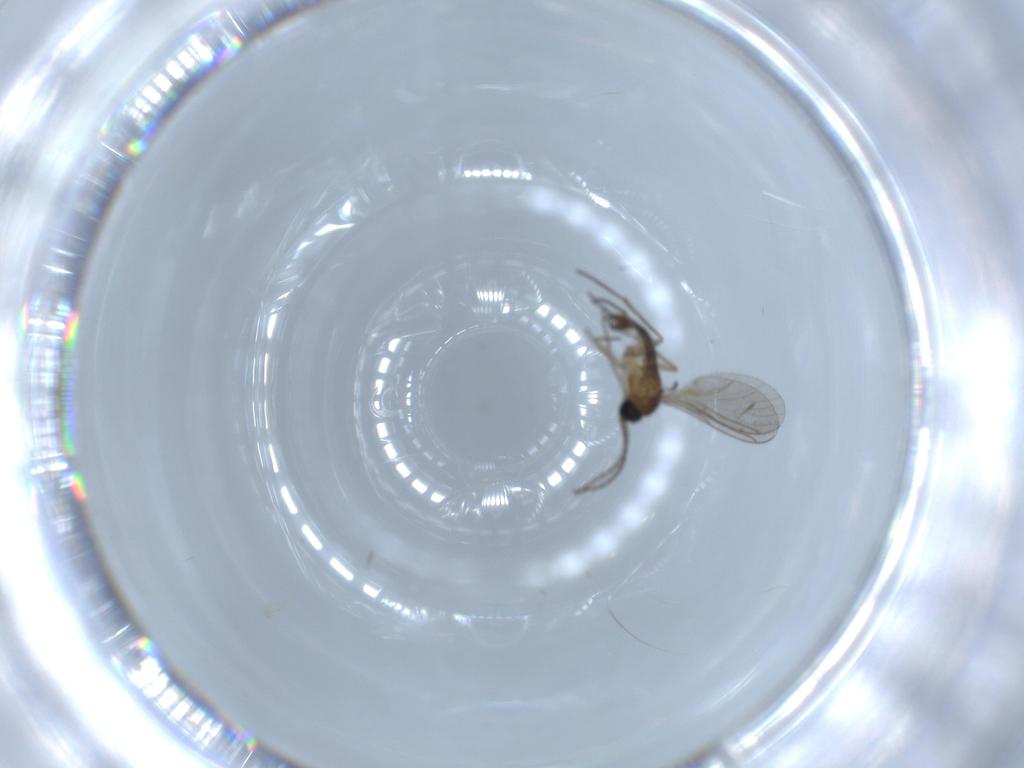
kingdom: Animalia
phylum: Arthropoda
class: Insecta
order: Diptera
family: Sciaridae
